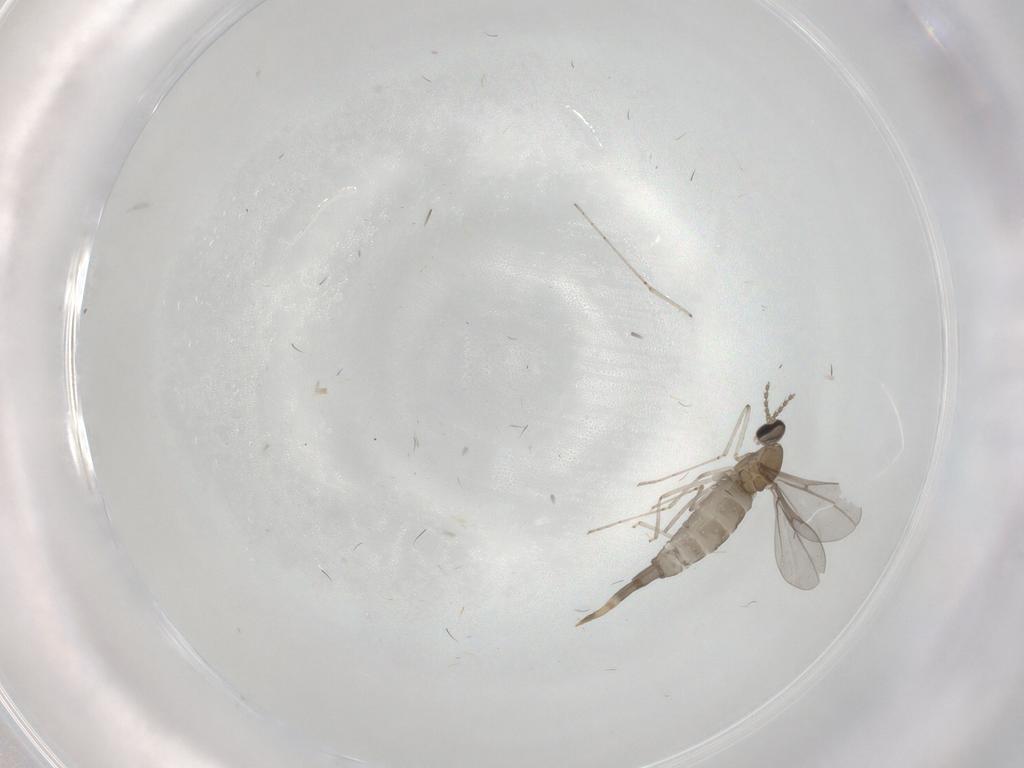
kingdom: Animalia
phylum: Arthropoda
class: Insecta
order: Diptera
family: Cecidomyiidae
